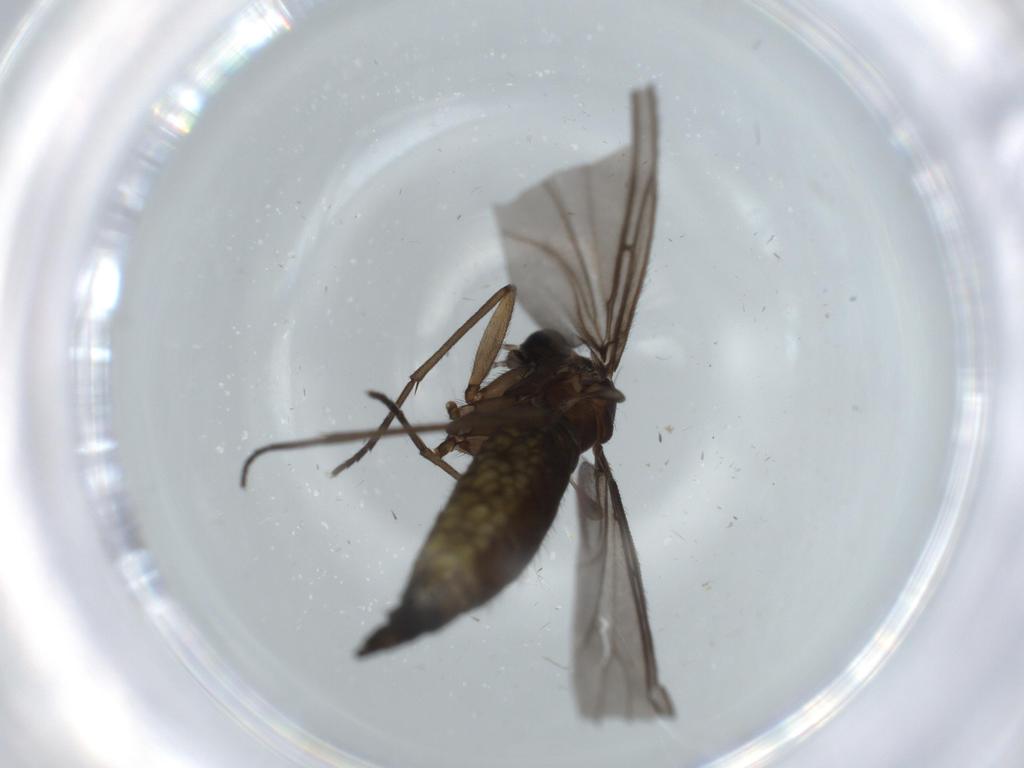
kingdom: Animalia
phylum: Arthropoda
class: Insecta
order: Diptera
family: Sciaridae
